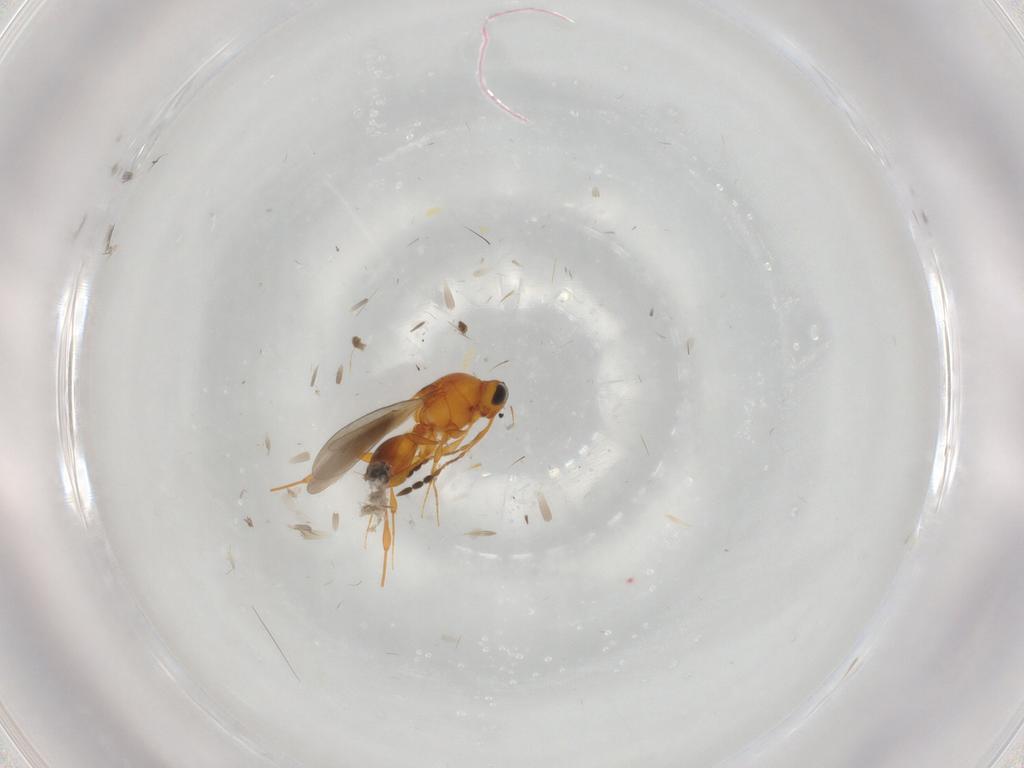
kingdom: Animalia
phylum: Arthropoda
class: Insecta
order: Hymenoptera
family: Platygastridae
